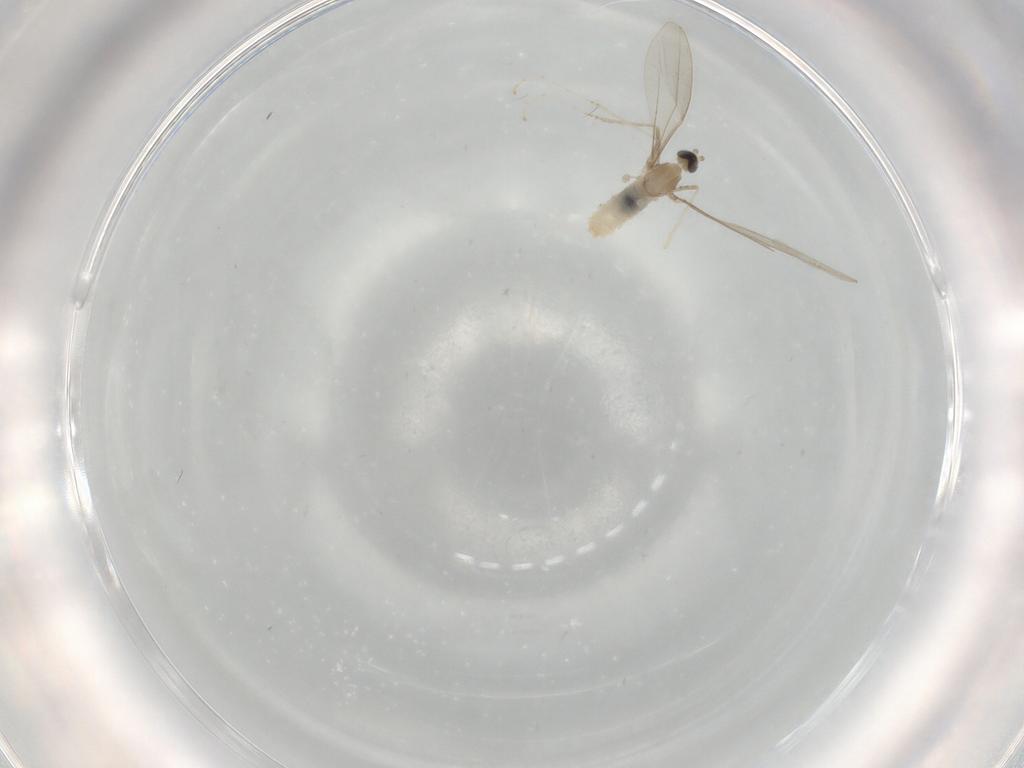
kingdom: Animalia
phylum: Arthropoda
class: Insecta
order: Diptera
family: Cecidomyiidae
